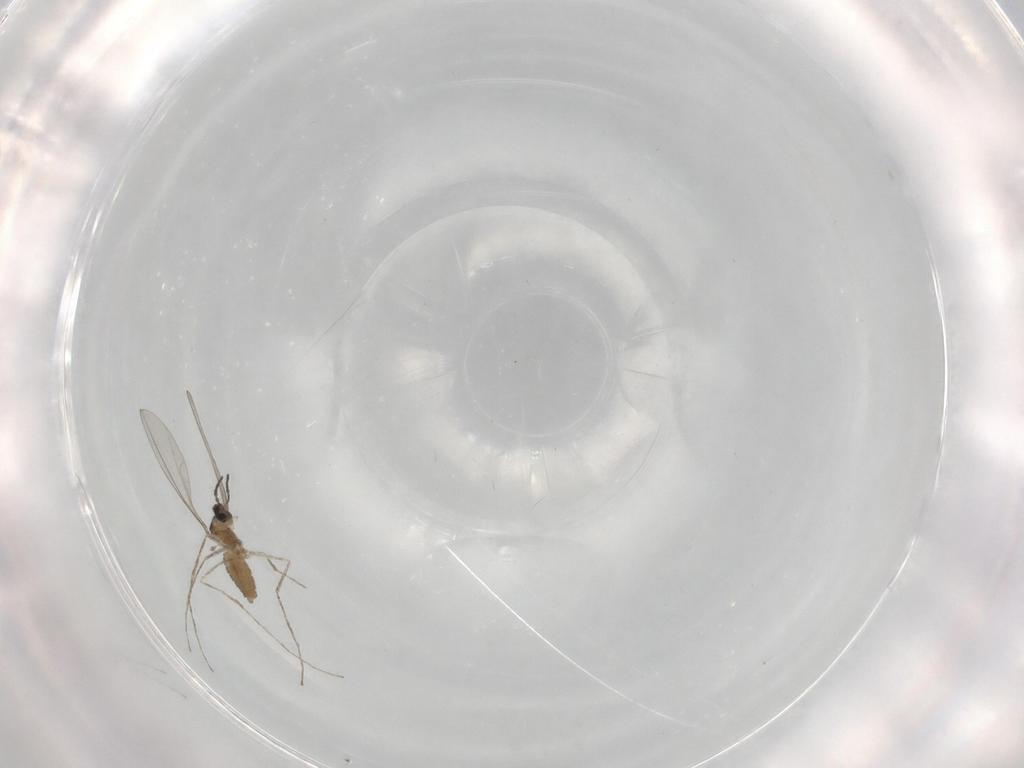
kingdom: Animalia
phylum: Arthropoda
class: Insecta
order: Diptera
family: Cecidomyiidae
